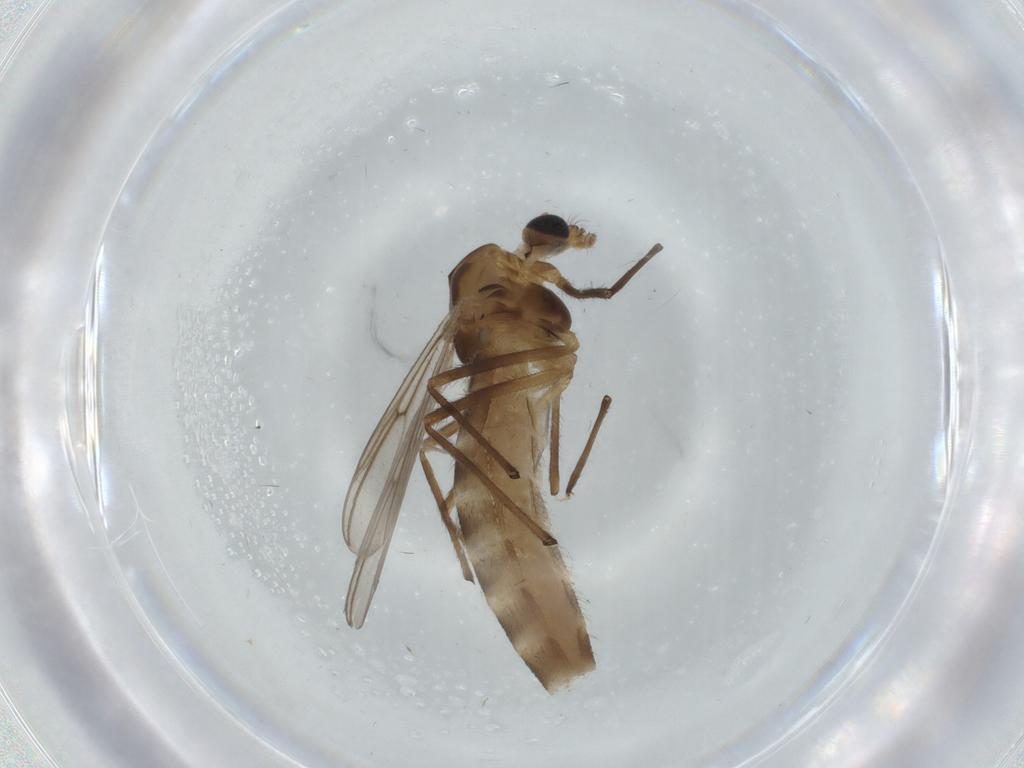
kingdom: Animalia
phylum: Arthropoda
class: Insecta
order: Diptera
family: Chironomidae
